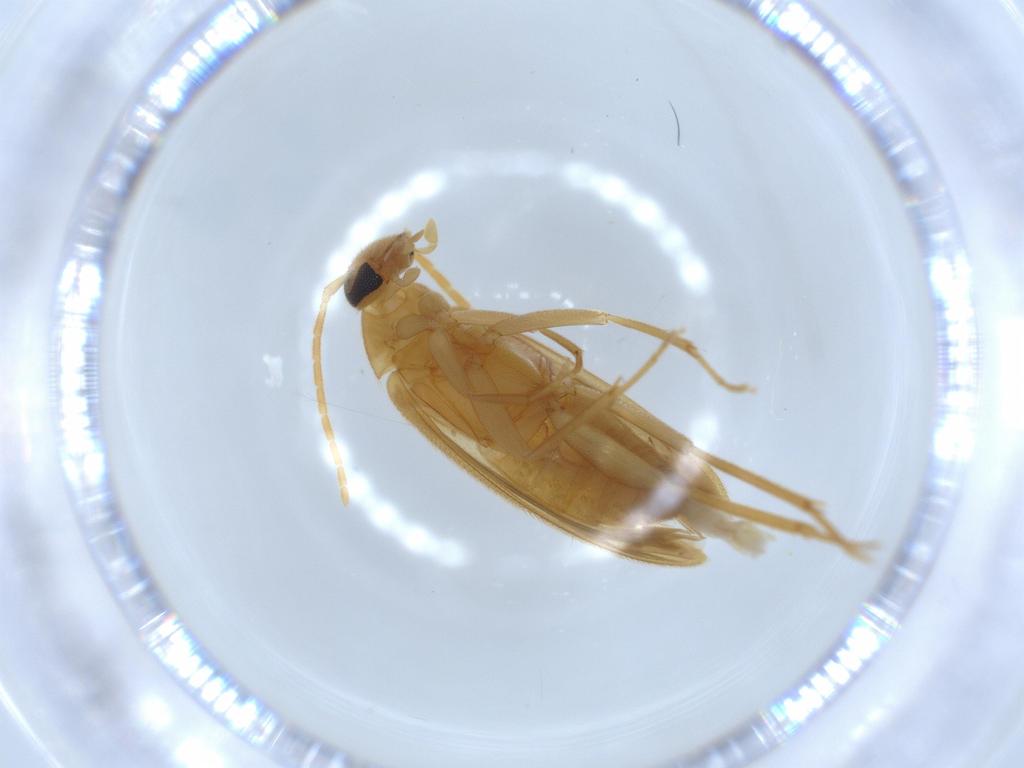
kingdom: Animalia
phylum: Arthropoda
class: Insecta
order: Coleoptera
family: Scraptiidae
